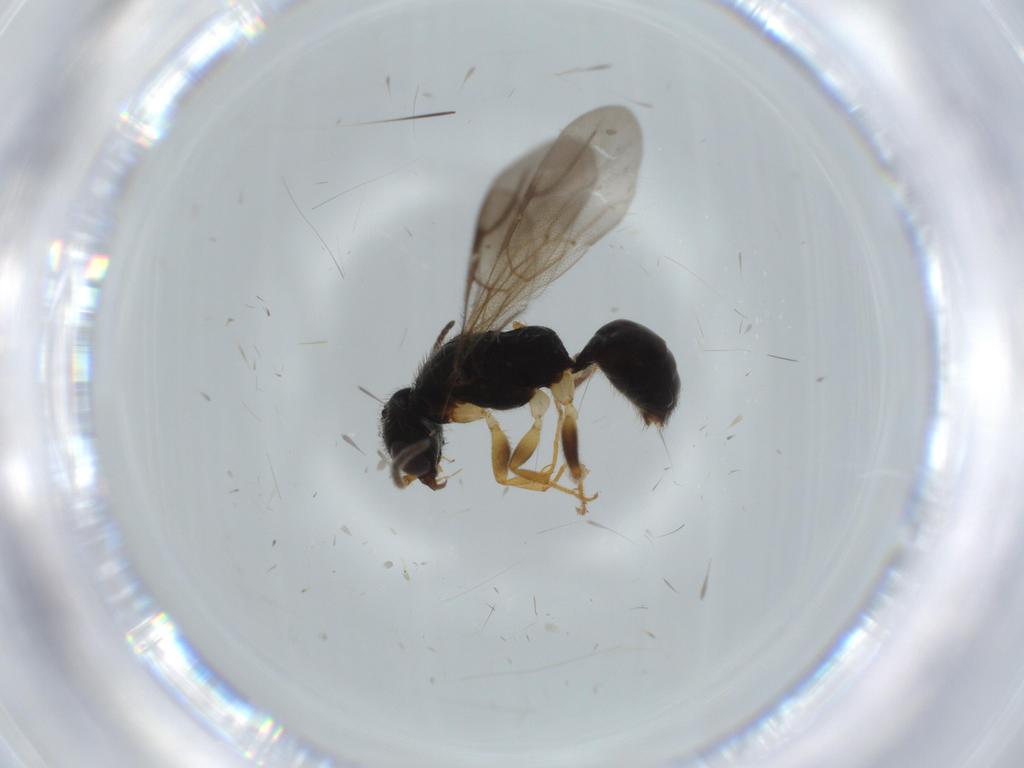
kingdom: Animalia
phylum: Arthropoda
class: Insecta
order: Hymenoptera
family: Bethylidae
